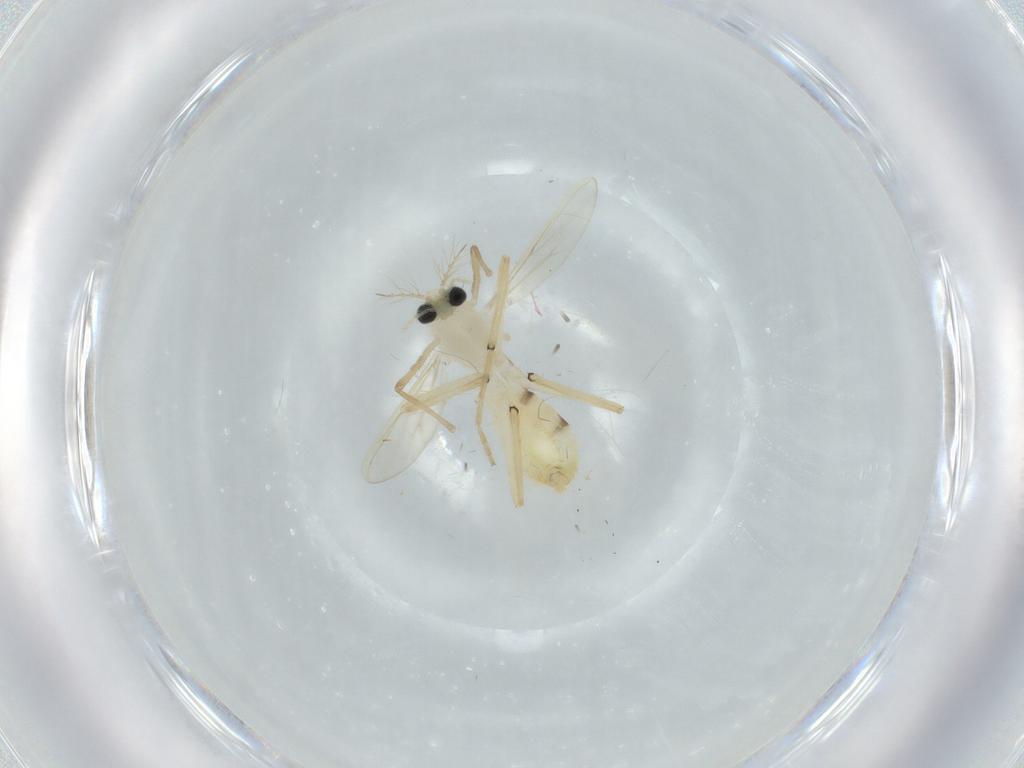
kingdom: Animalia
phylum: Arthropoda
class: Insecta
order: Diptera
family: Chironomidae
